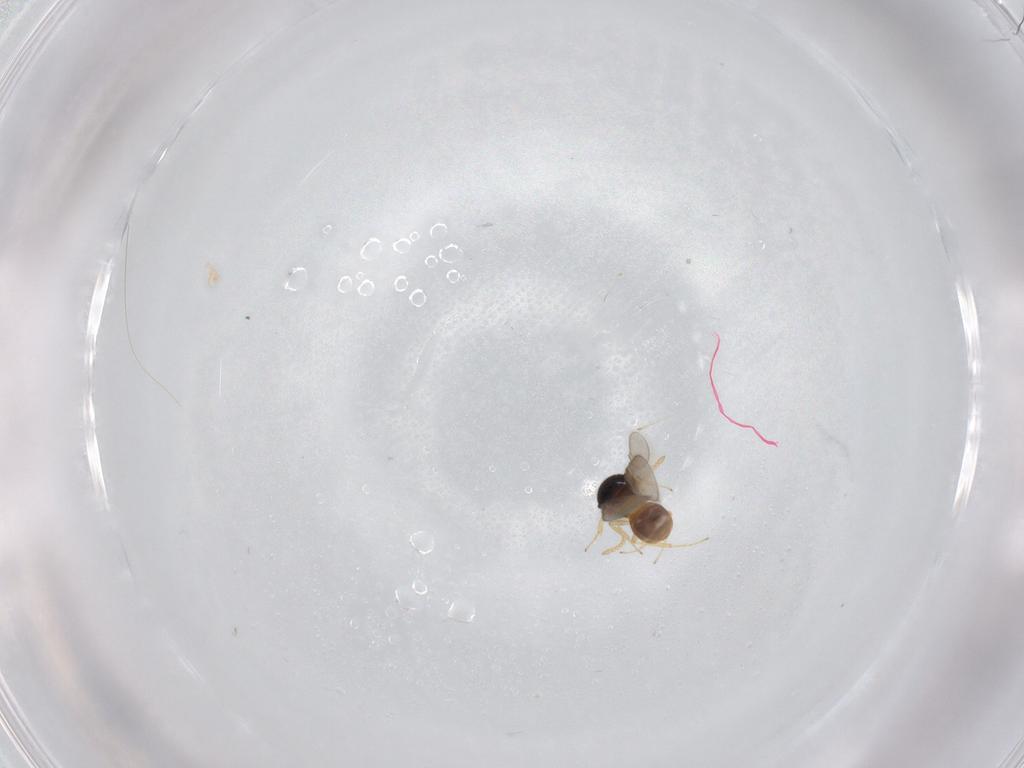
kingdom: Animalia
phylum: Arthropoda
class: Insecta
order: Hymenoptera
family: Scelionidae
